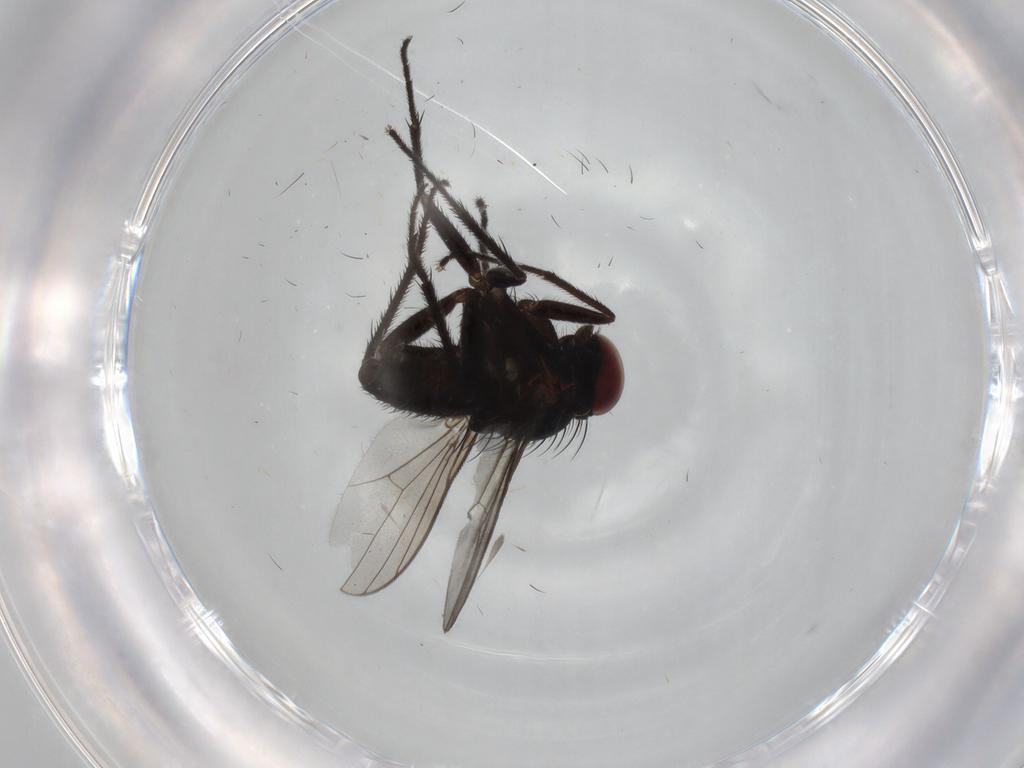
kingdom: Animalia
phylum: Arthropoda
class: Insecta
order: Diptera
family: Dolichopodidae
